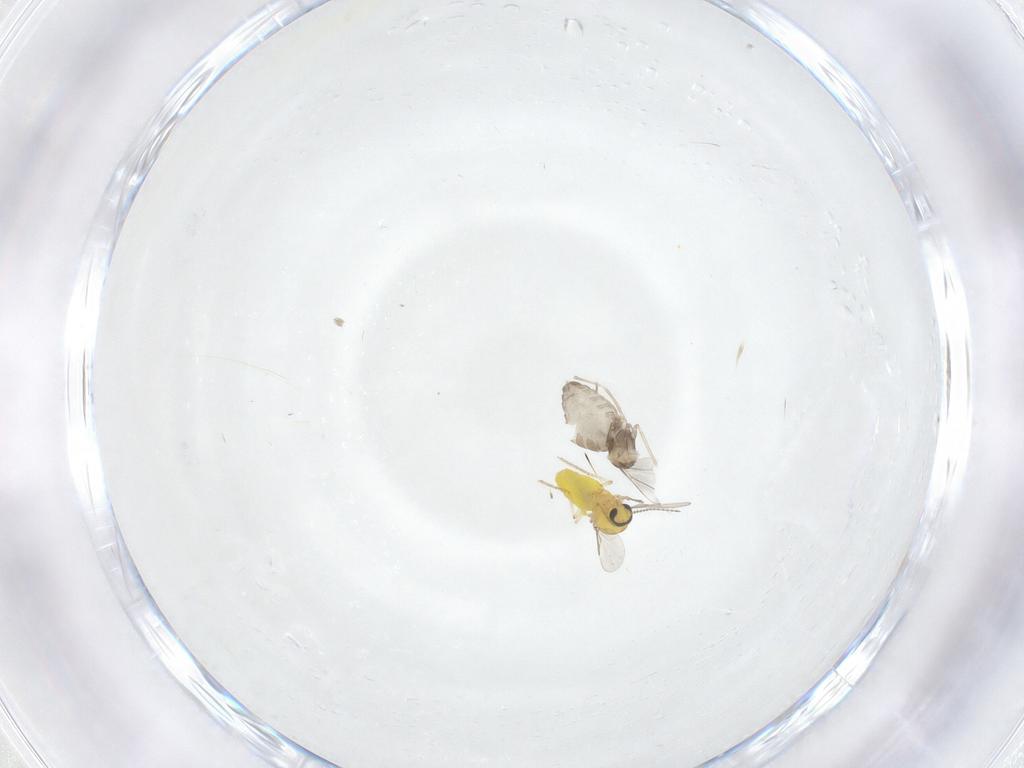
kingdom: Animalia
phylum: Arthropoda
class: Insecta
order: Diptera
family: Cecidomyiidae
